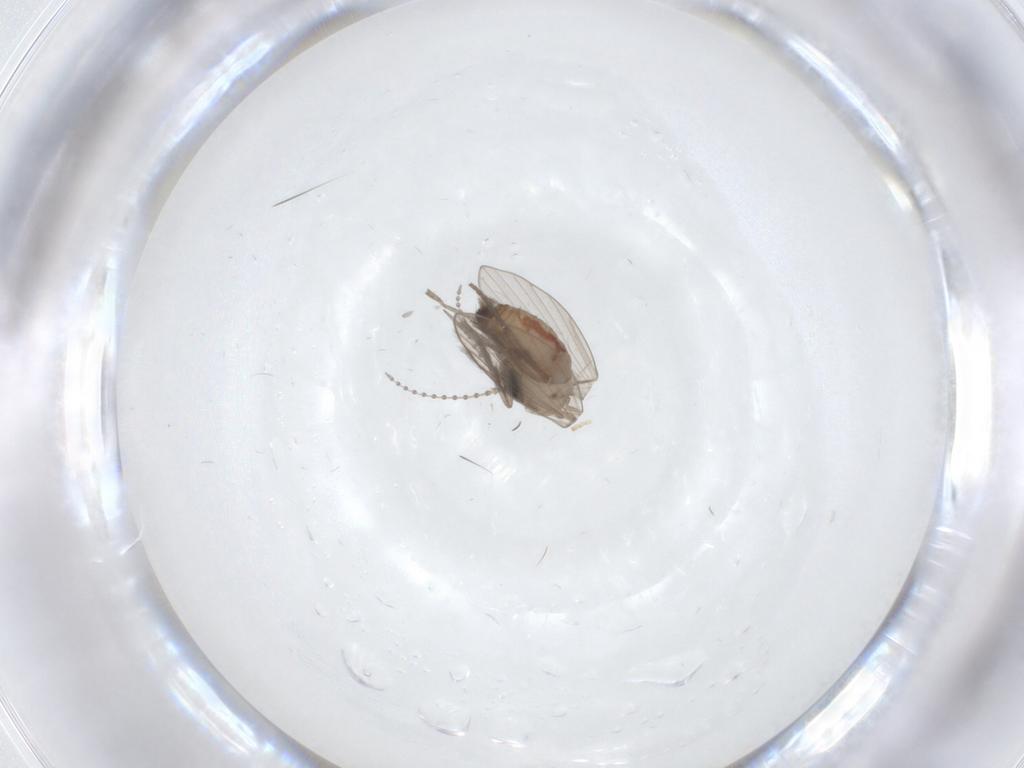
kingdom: Animalia
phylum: Arthropoda
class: Insecta
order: Diptera
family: Psychodidae
